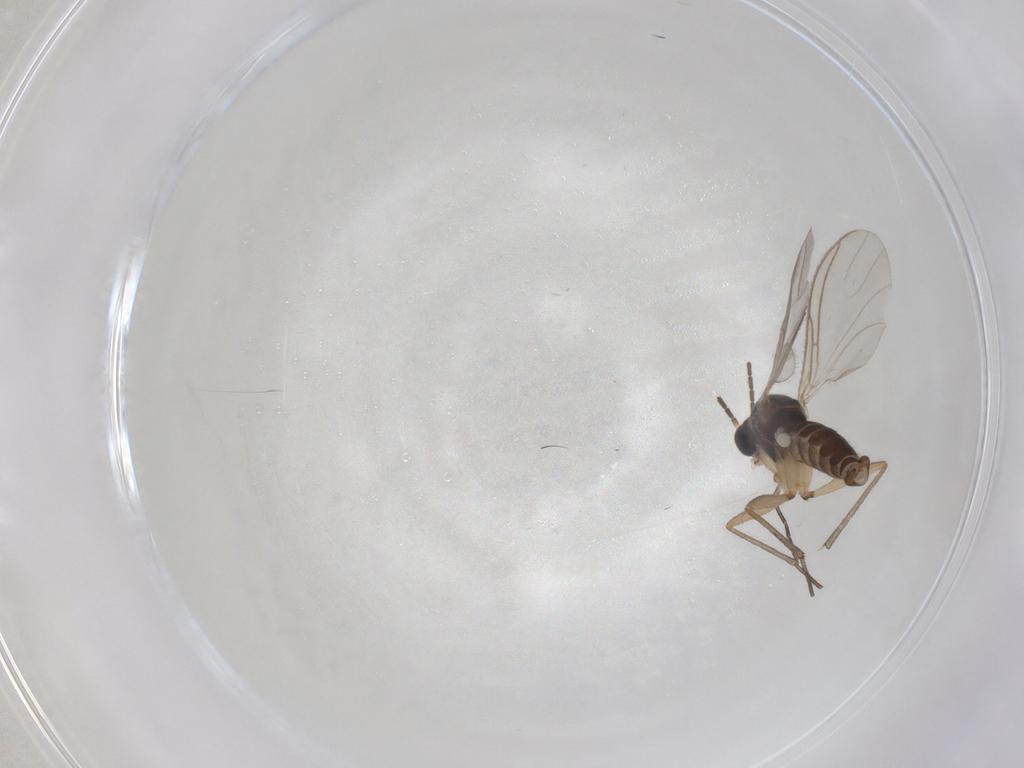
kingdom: Animalia
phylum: Arthropoda
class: Insecta
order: Diptera
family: Sciaridae
